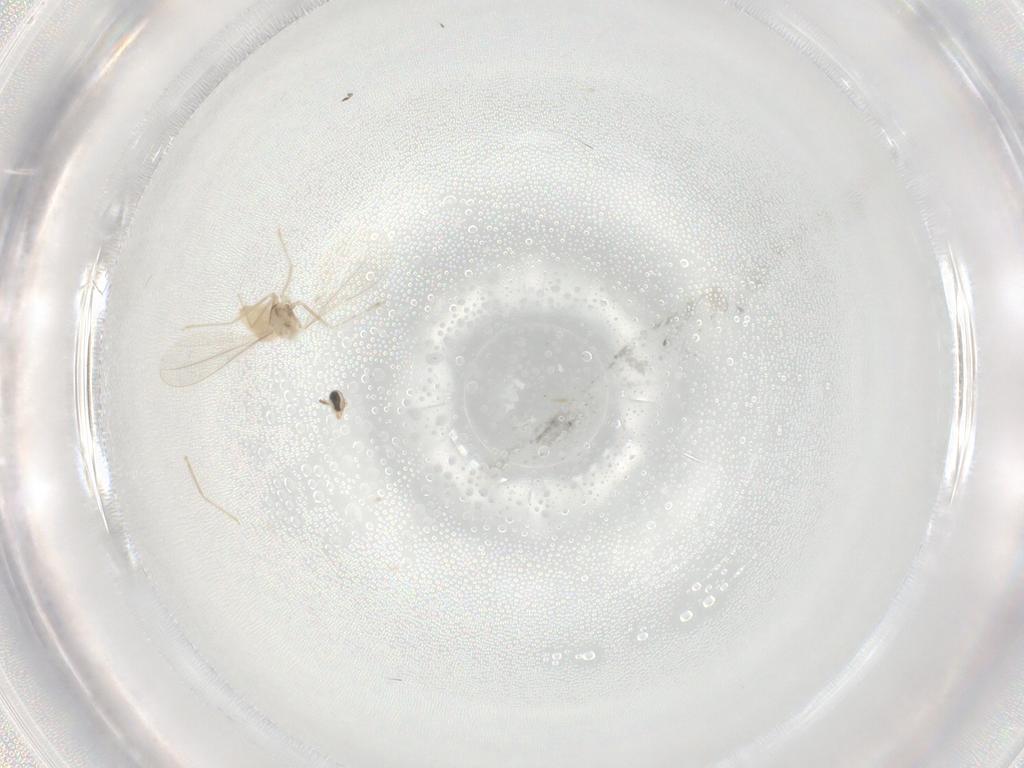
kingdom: Animalia
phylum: Arthropoda
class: Insecta
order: Diptera
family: Cecidomyiidae
